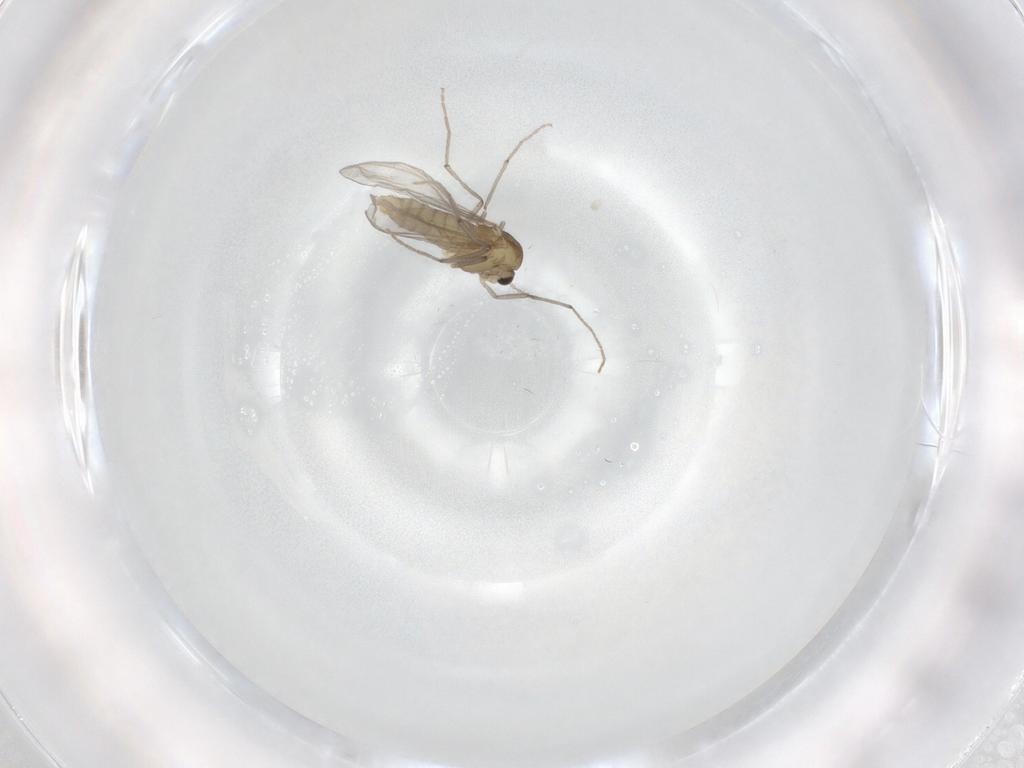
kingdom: Animalia
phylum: Arthropoda
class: Insecta
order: Diptera
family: Chironomidae
